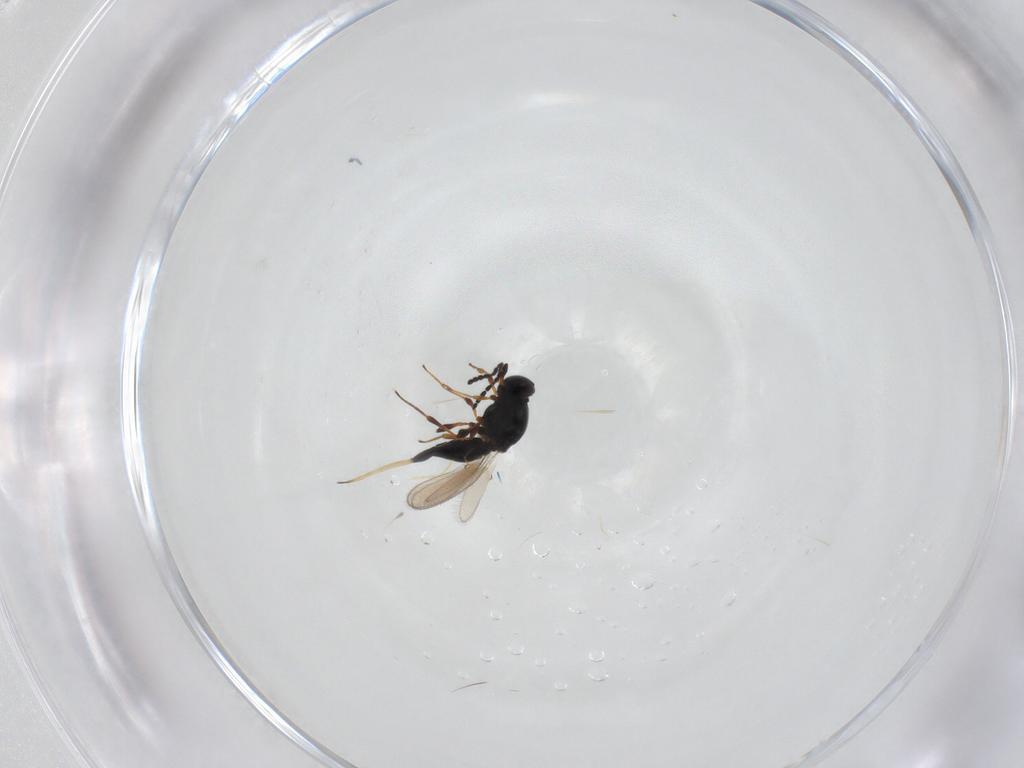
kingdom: Animalia
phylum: Arthropoda
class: Insecta
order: Hymenoptera
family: Platygastridae
